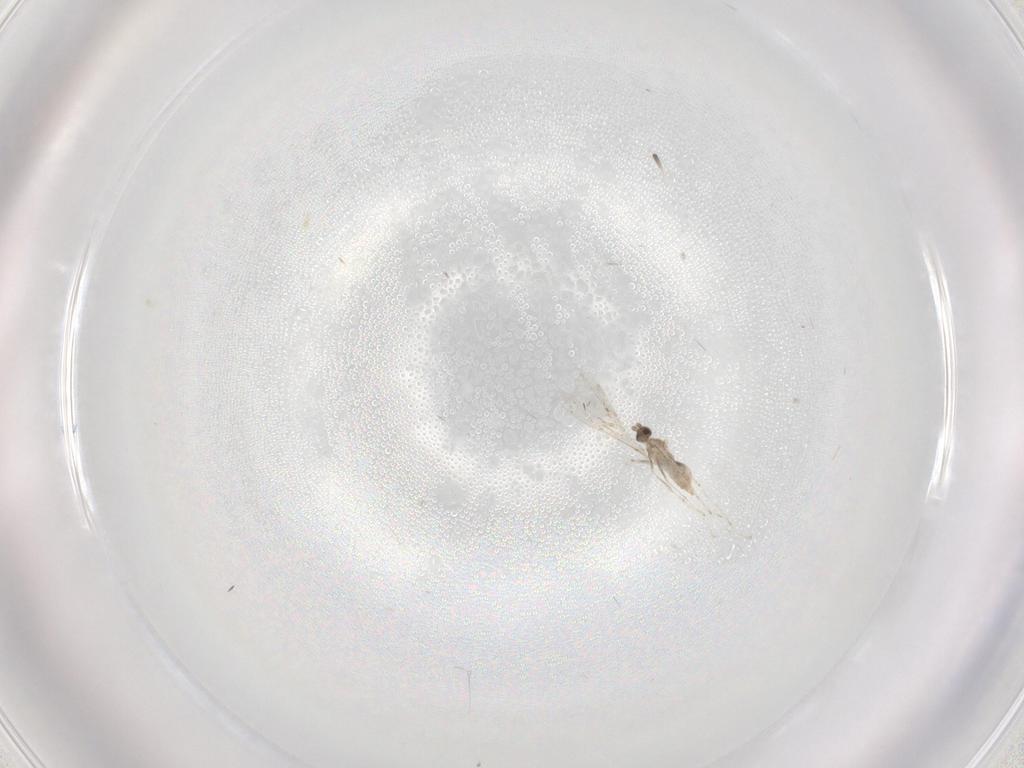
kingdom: Animalia
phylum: Arthropoda
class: Insecta
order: Diptera
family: Cecidomyiidae
